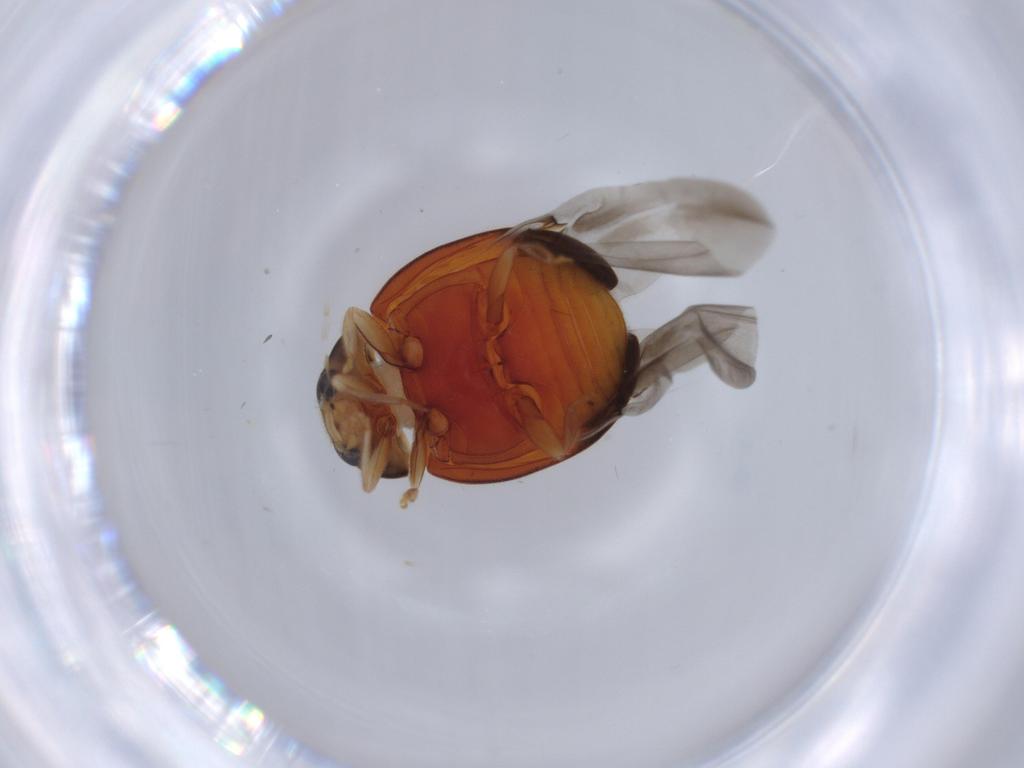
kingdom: Animalia
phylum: Arthropoda
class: Insecta
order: Coleoptera
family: Coccinellidae
